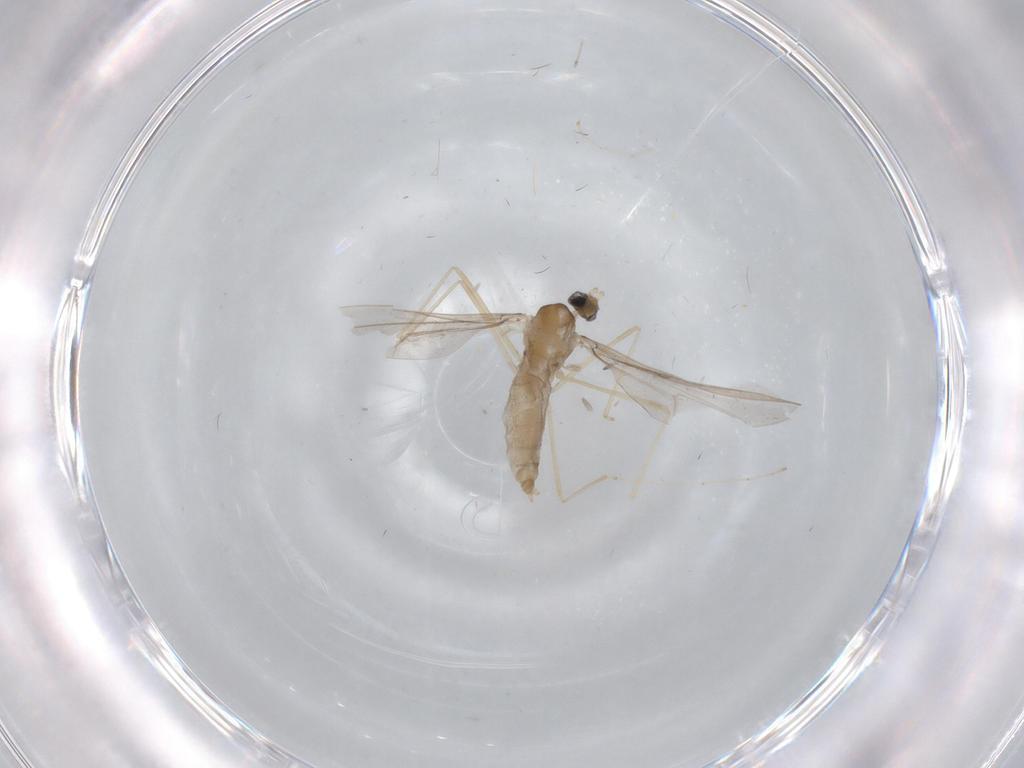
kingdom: Animalia
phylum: Arthropoda
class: Insecta
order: Diptera
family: Cecidomyiidae
